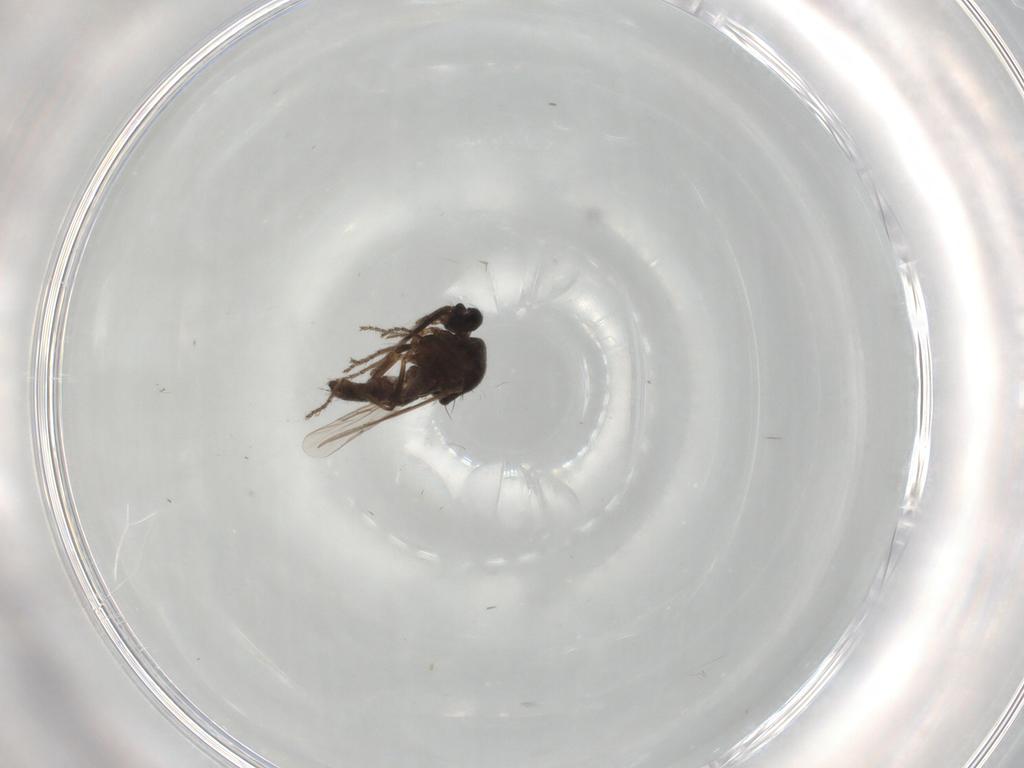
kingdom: Animalia
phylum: Arthropoda
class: Insecta
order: Diptera
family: Ceratopogonidae
